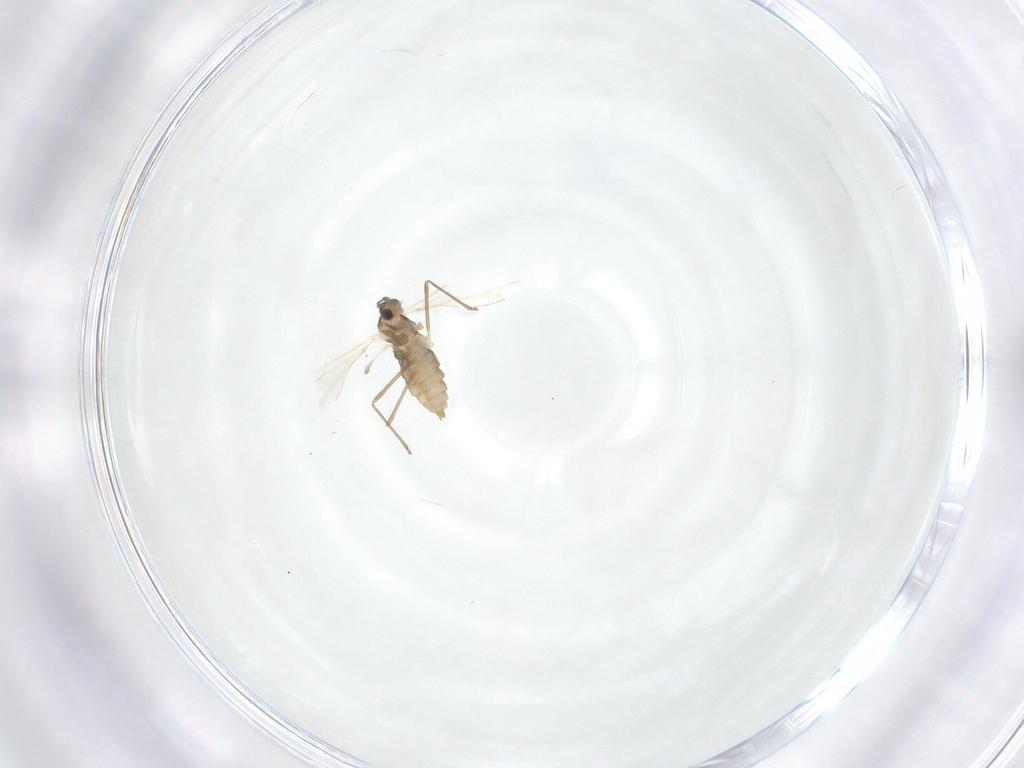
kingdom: Animalia
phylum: Arthropoda
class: Insecta
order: Diptera
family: Cecidomyiidae
